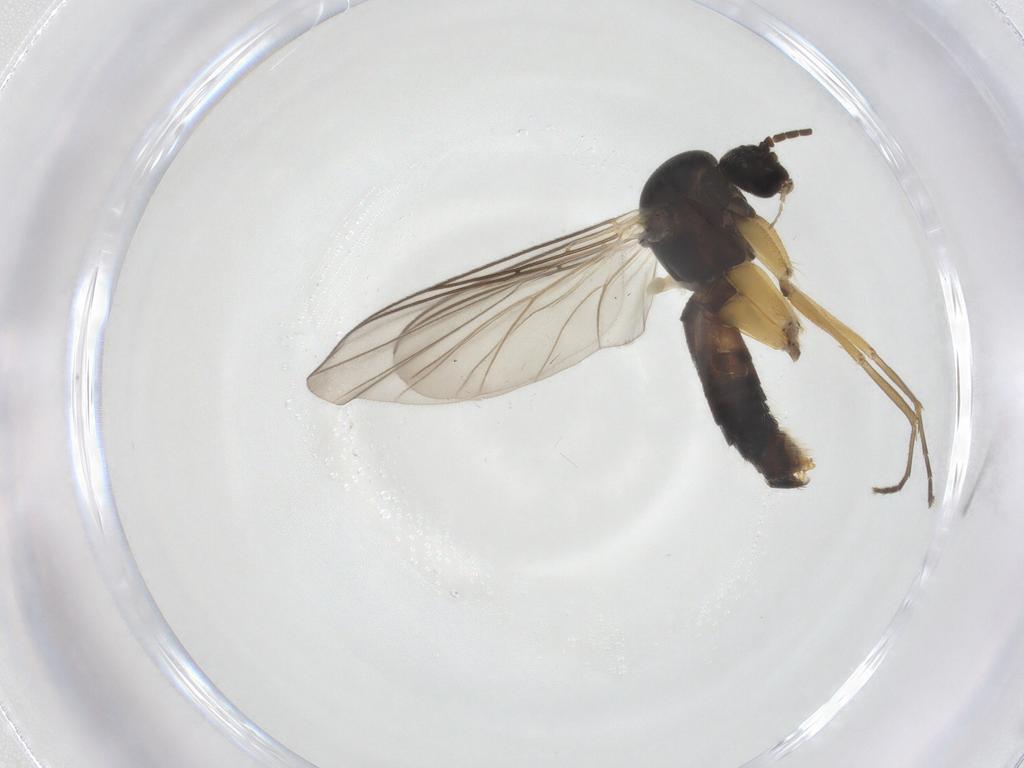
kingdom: Animalia
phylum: Arthropoda
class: Insecta
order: Diptera
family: Mycetophilidae
